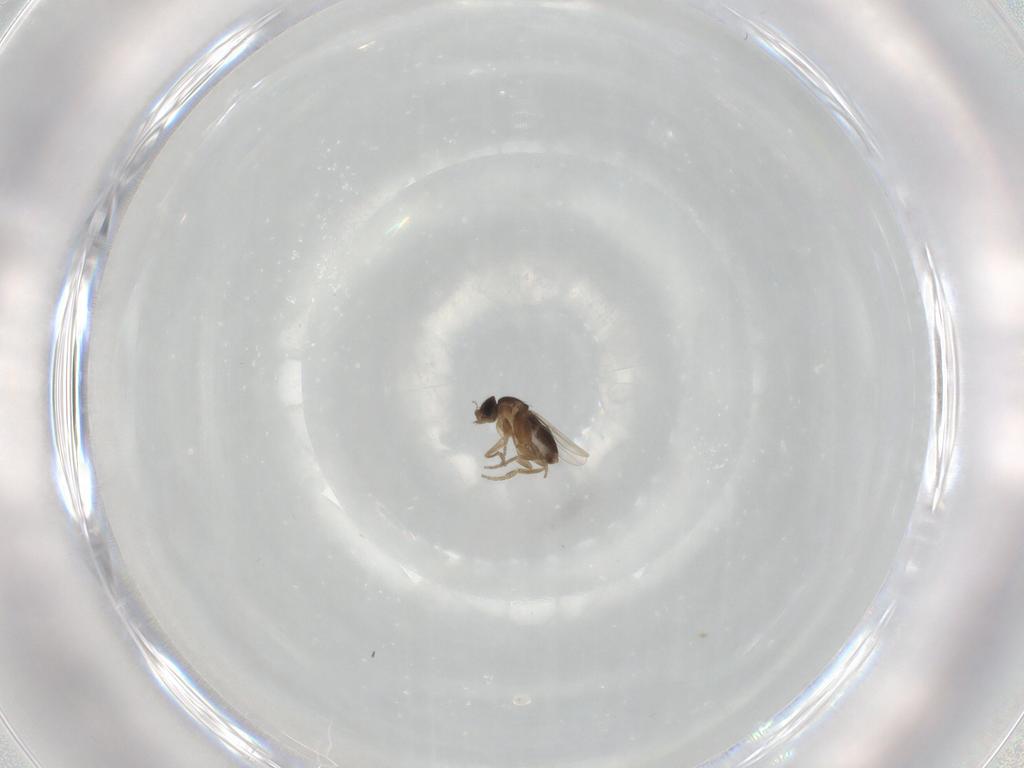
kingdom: Animalia
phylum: Arthropoda
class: Insecta
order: Diptera
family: Phoridae
